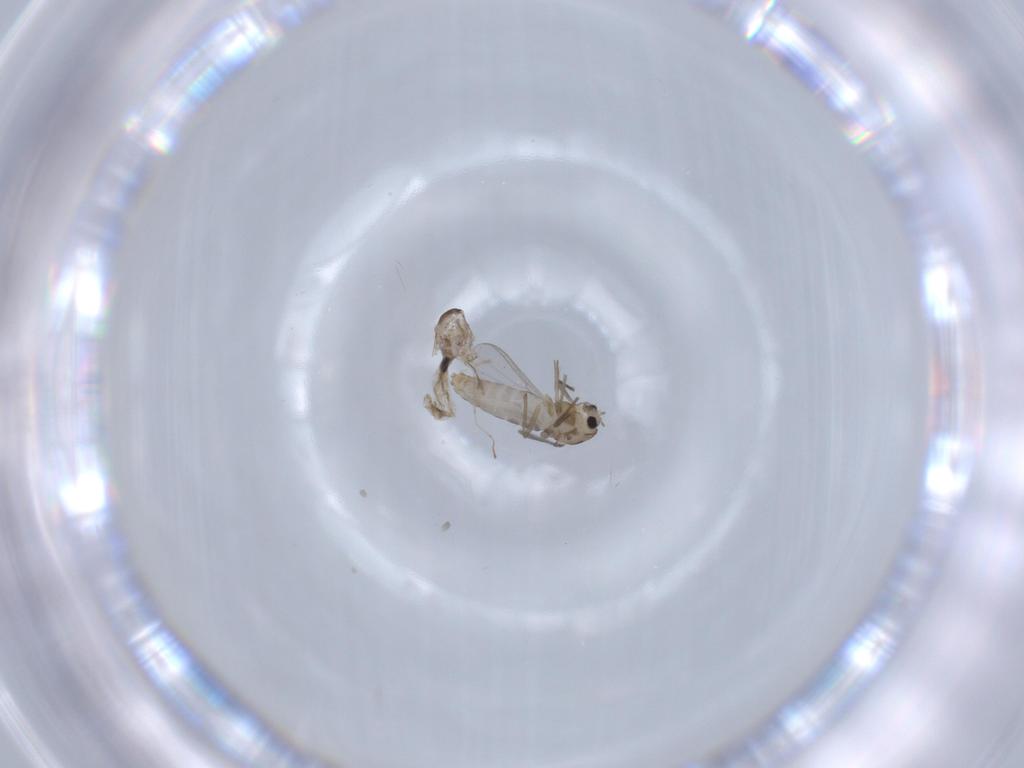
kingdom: Animalia
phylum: Arthropoda
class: Insecta
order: Diptera
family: Chironomidae
